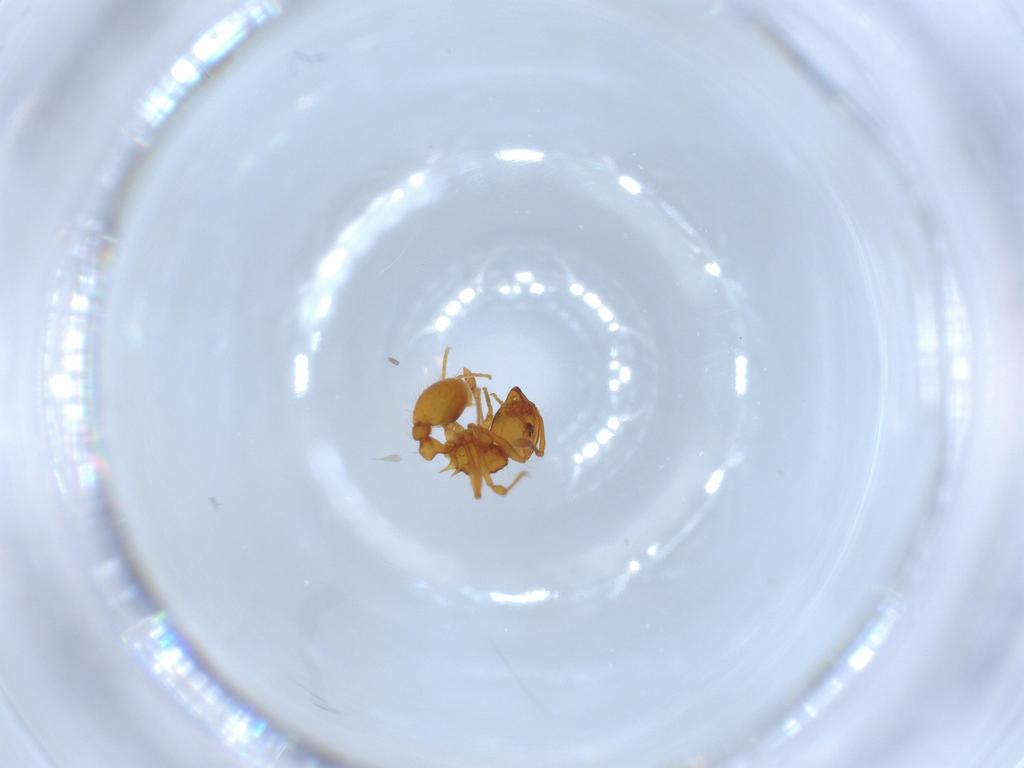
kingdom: Animalia
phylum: Arthropoda
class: Insecta
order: Hymenoptera
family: Formicidae
